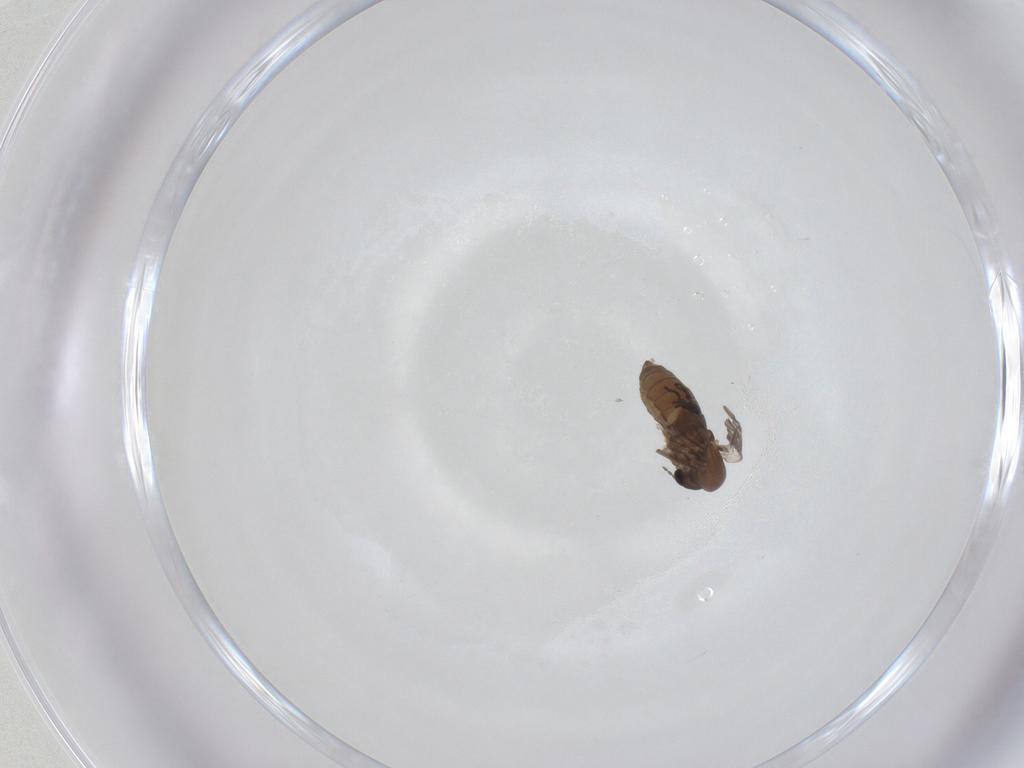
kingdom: Animalia
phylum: Arthropoda
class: Insecta
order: Diptera
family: Psychodidae
